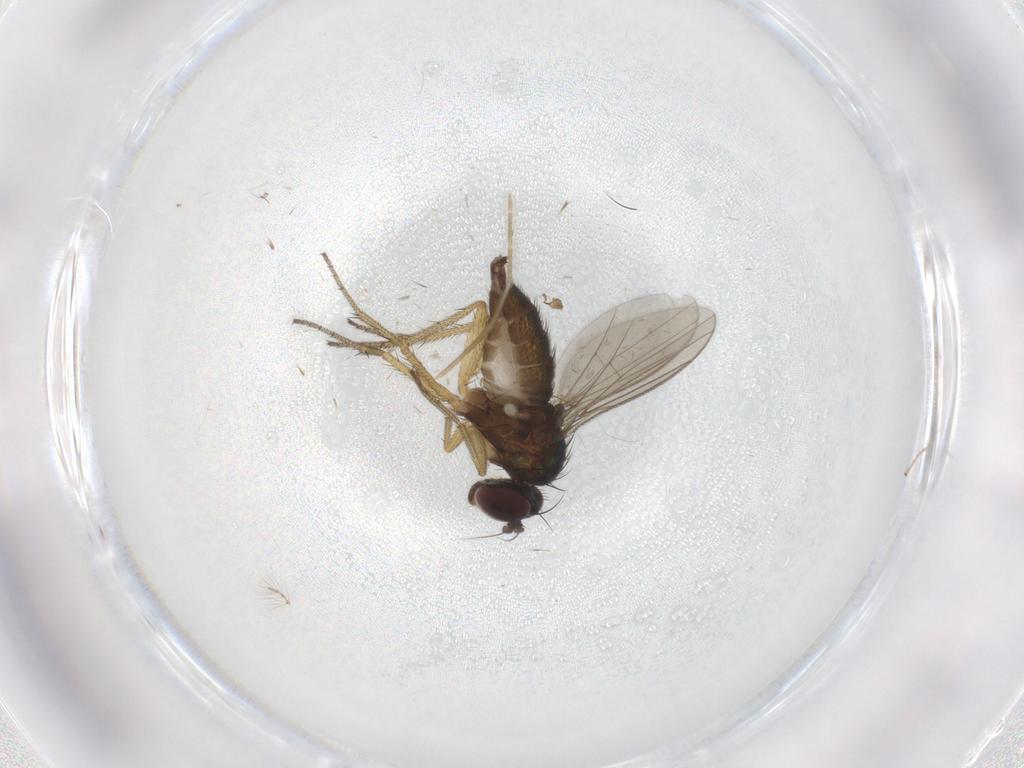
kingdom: Animalia
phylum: Arthropoda
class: Insecta
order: Diptera
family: Chironomidae
